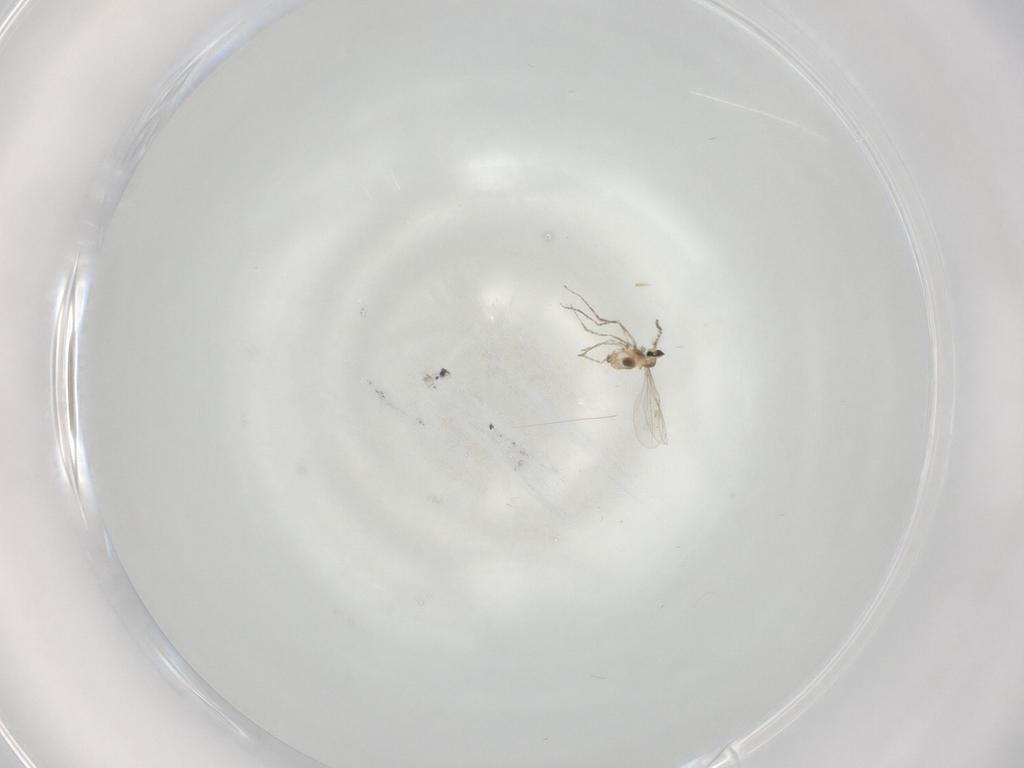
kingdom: Animalia
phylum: Arthropoda
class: Insecta
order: Diptera
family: Cecidomyiidae
